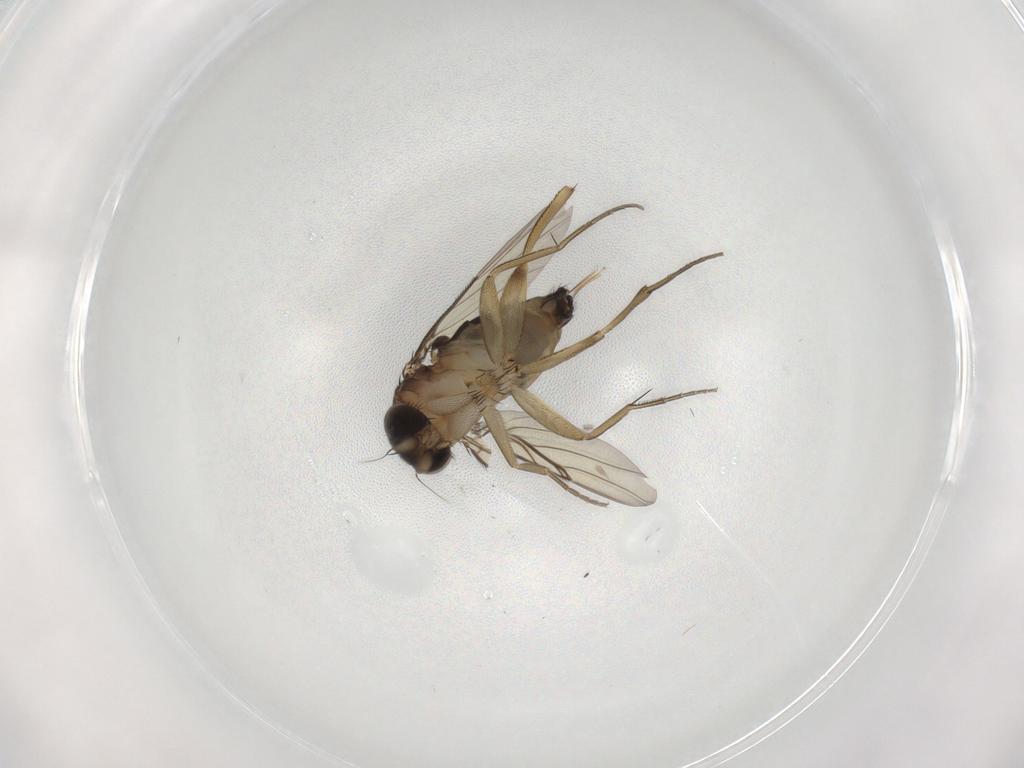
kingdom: Animalia
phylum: Arthropoda
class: Insecta
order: Diptera
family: Phoridae
